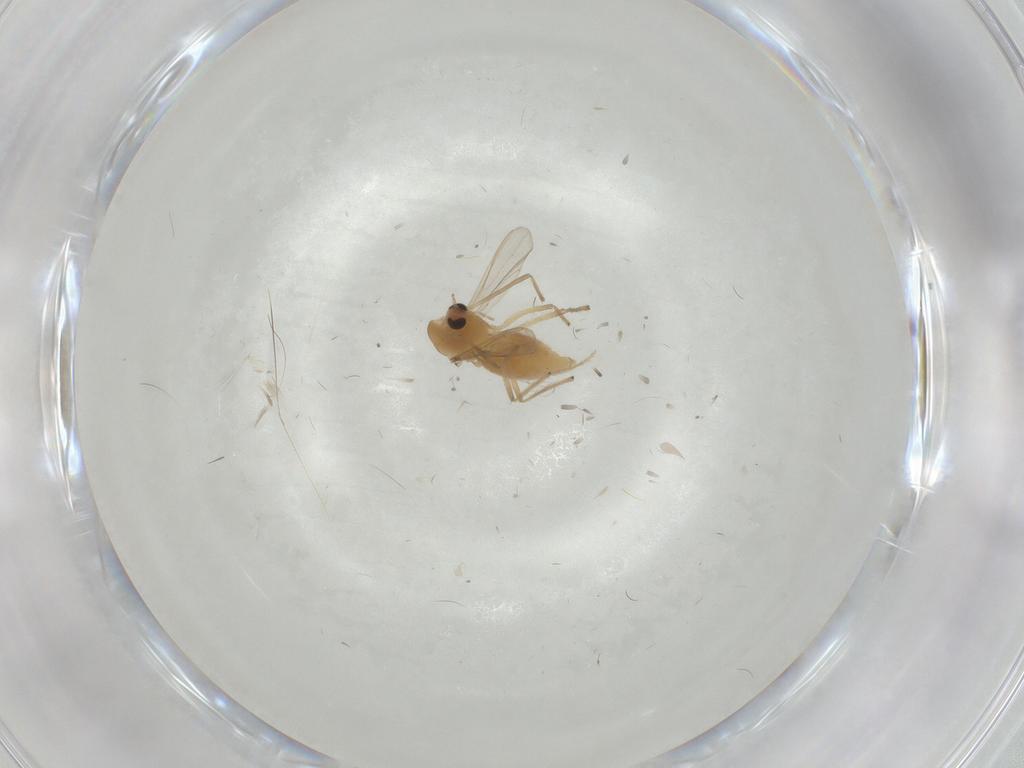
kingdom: Animalia
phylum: Arthropoda
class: Insecta
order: Diptera
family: Chironomidae
